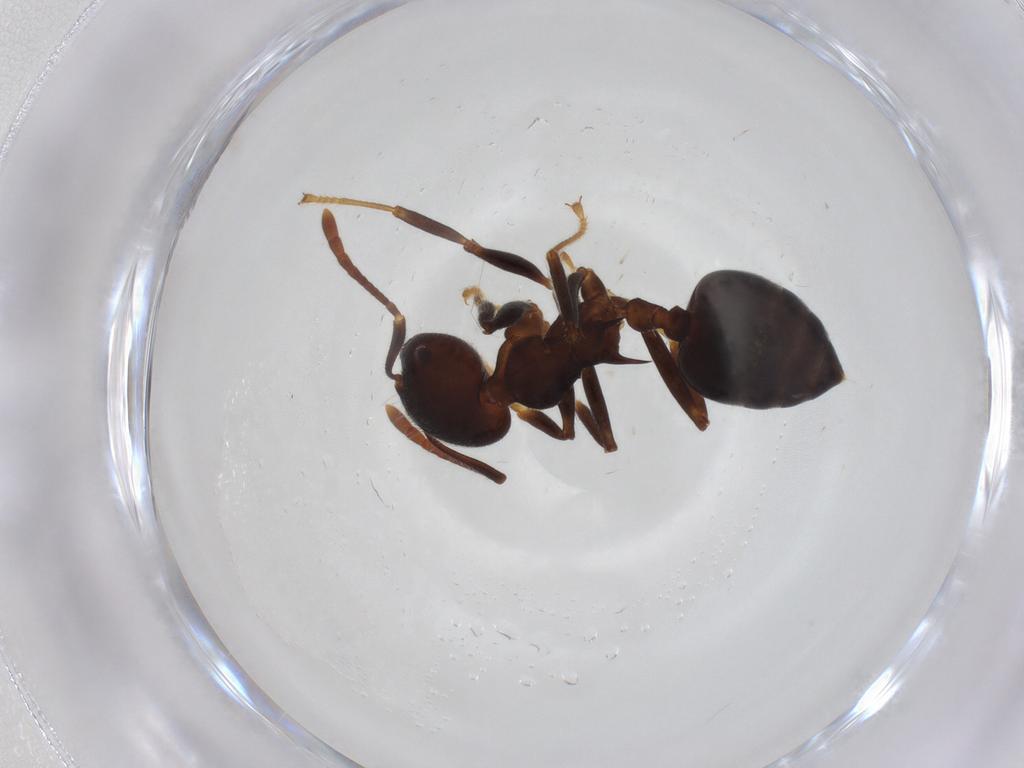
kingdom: Animalia
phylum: Arthropoda
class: Insecta
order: Hymenoptera
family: Formicidae
